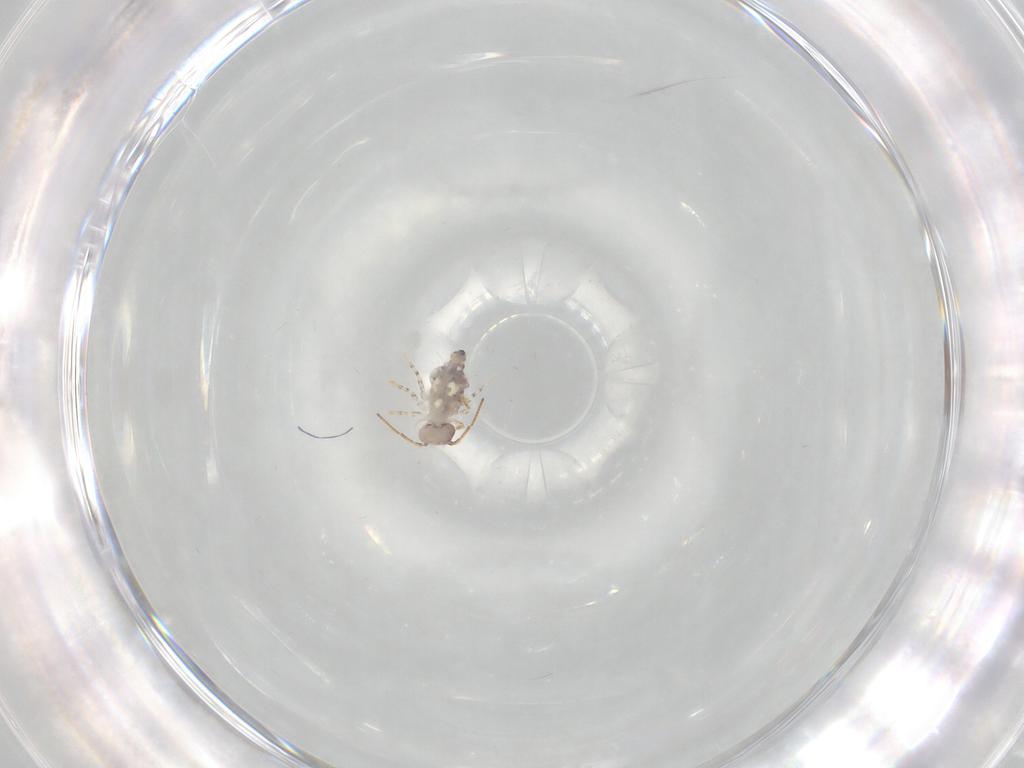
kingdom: Animalia
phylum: Arthropoda
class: Collembola
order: Symphypleona
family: Bourletiellidae
